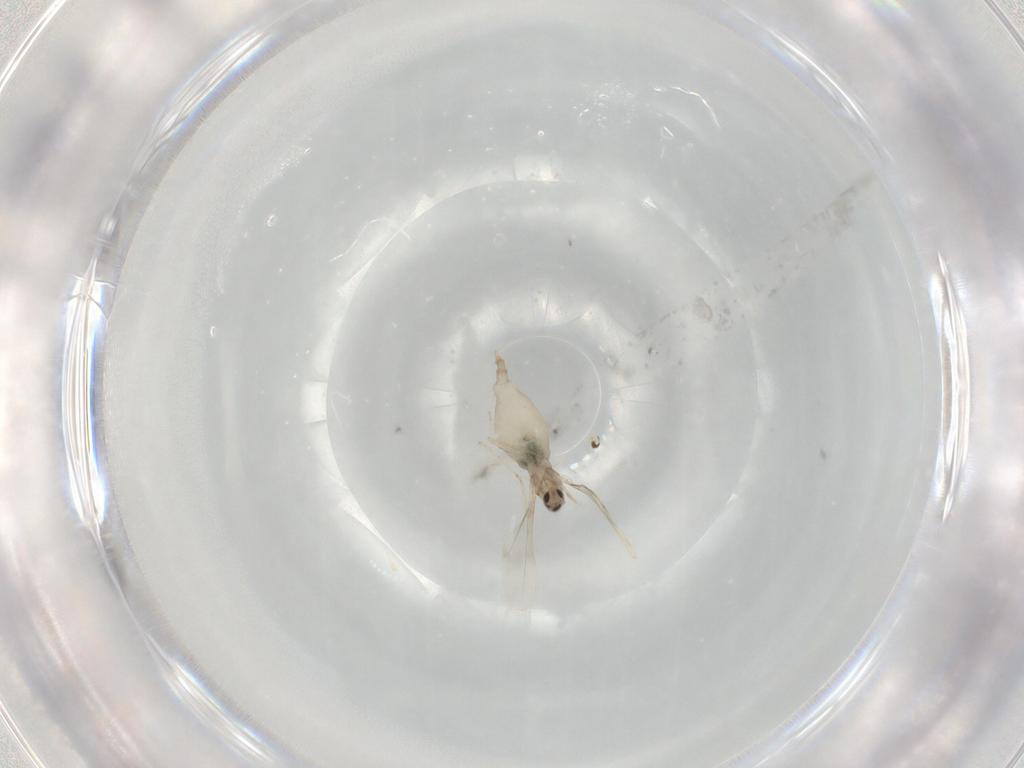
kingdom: Animalia
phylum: Arthropoda
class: Insecta
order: Diptera
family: Cecidomyiidae
